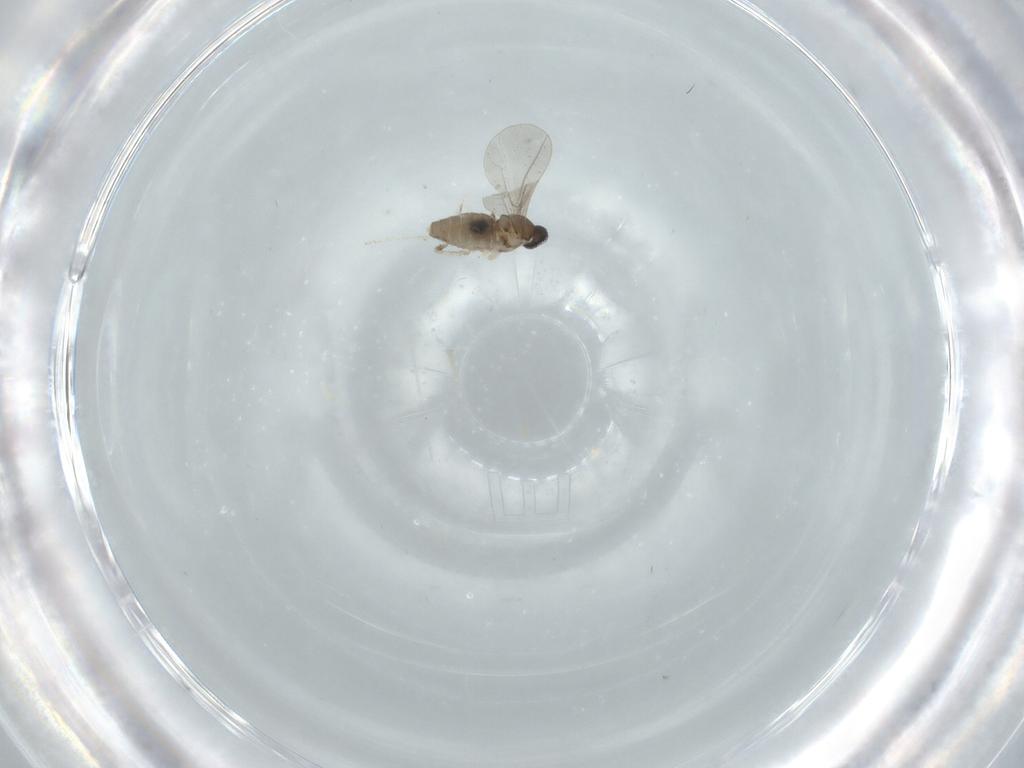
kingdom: Animalia
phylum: Arthropoda
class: Insecta
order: Diptera
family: Cecidomyiidae
